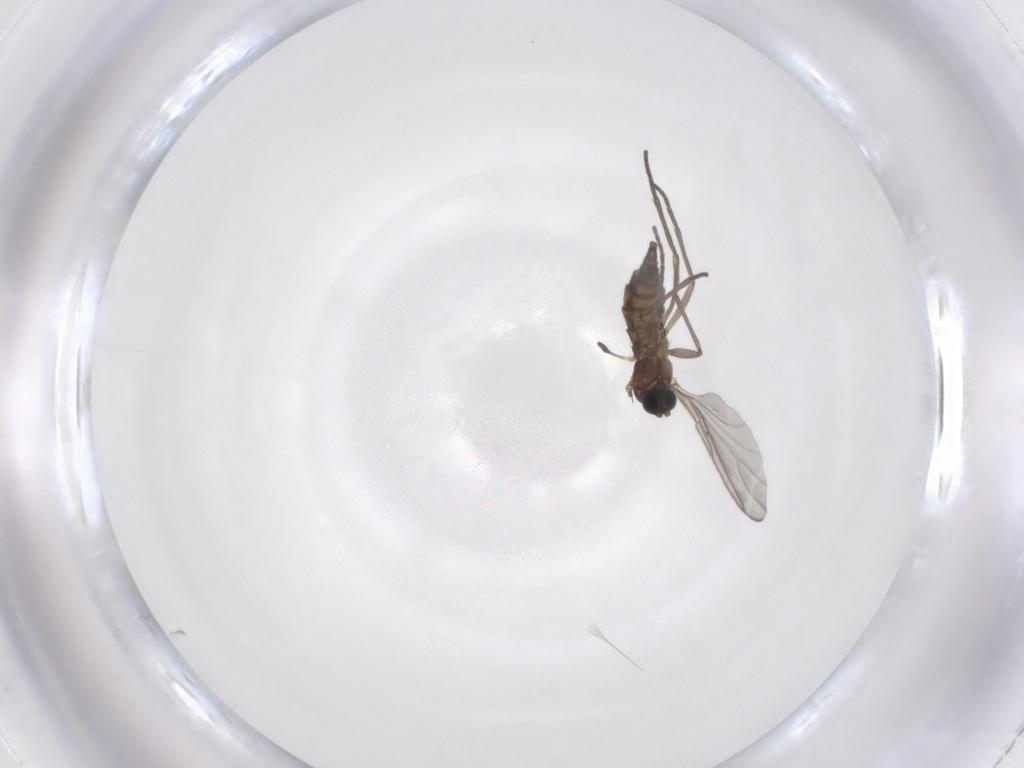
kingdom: Animalia
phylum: Arthropoda
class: Insecta
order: Diptera
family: Sciaridae
